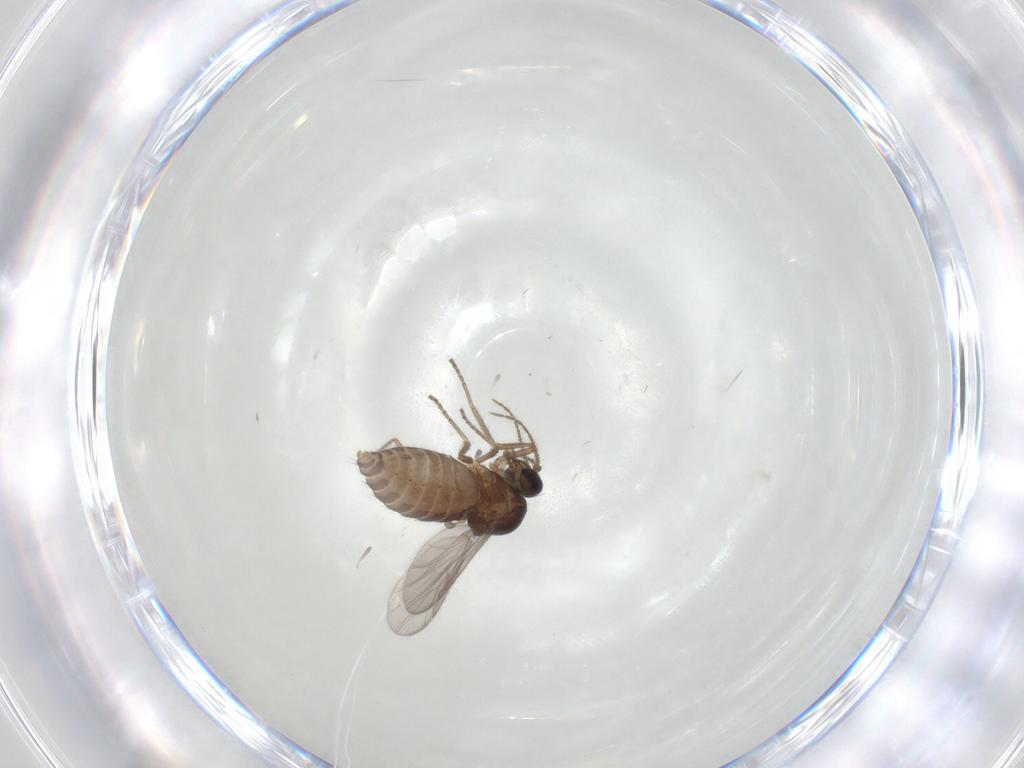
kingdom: Animalia
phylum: Arthropoda
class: Insecta
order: Diptera
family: Ceratopogonidae
